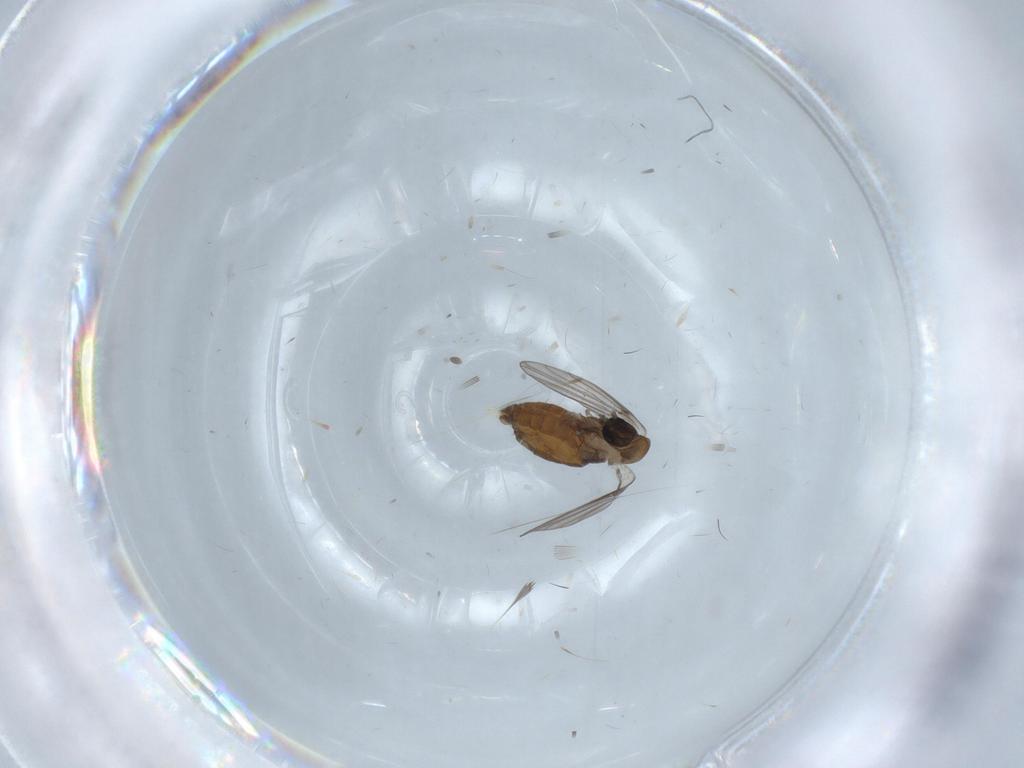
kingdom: Animalia
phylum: Arthropoda
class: Insecta
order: Diptera
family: Psychodidae
